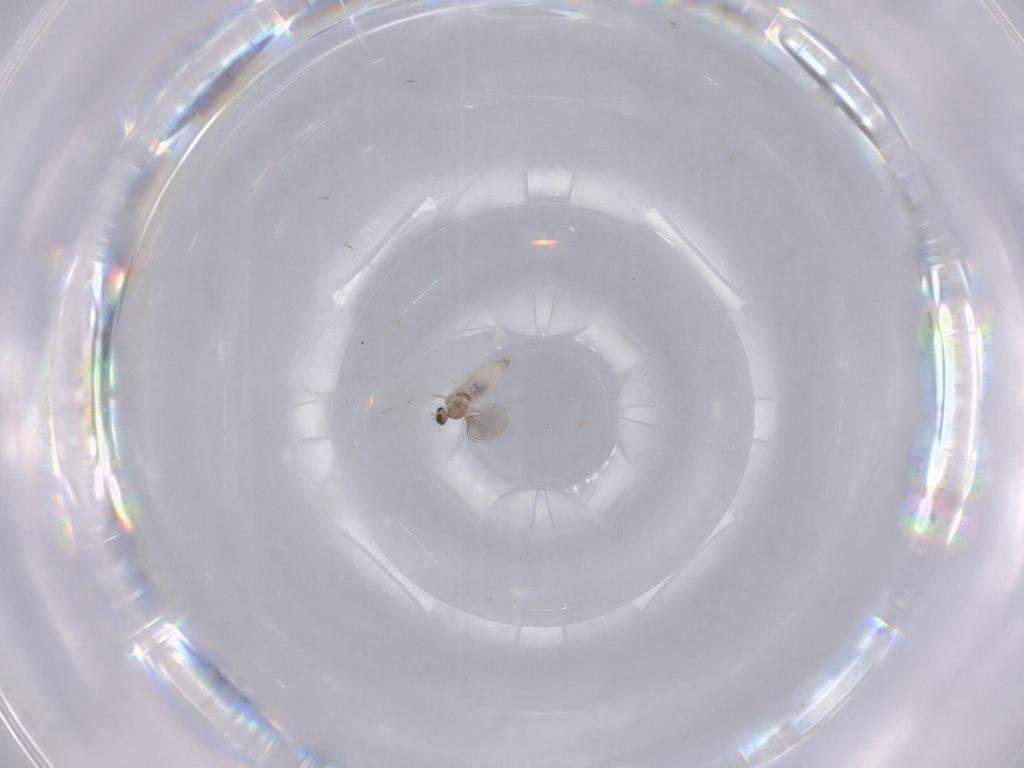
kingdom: Animalia
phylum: Arthropoda
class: Insecta
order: Diptera
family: Cecidomyiidae
